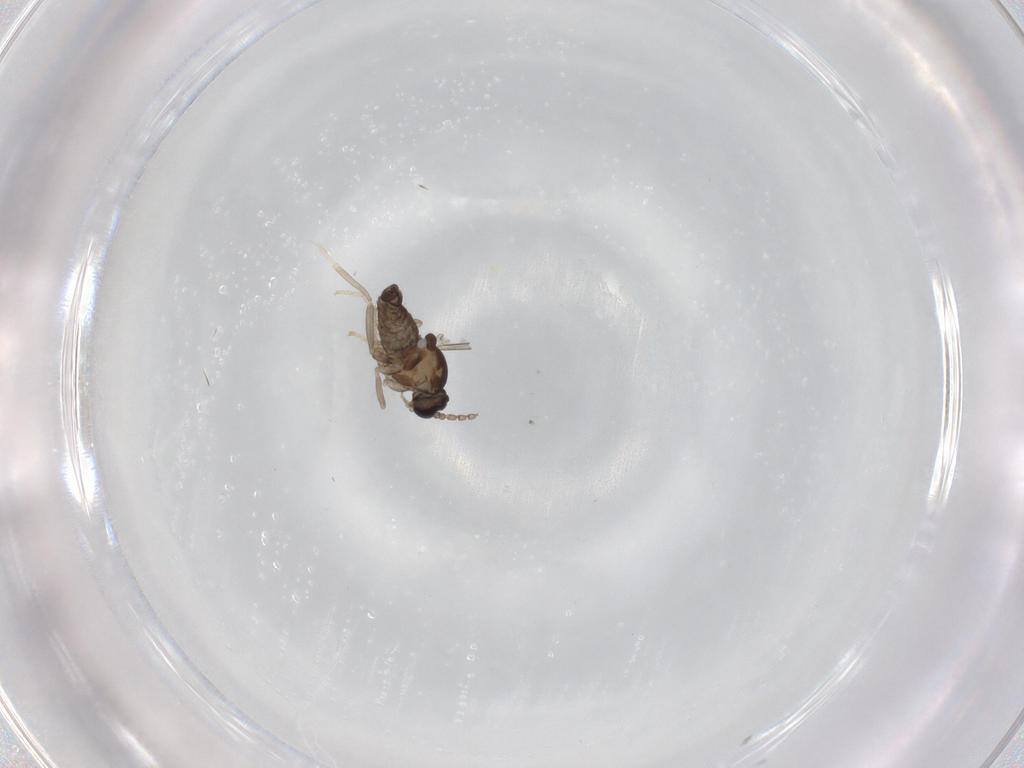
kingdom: Animalia
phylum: Arthropoda
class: Insecta
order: Diptera
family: Cecidomyiidae
